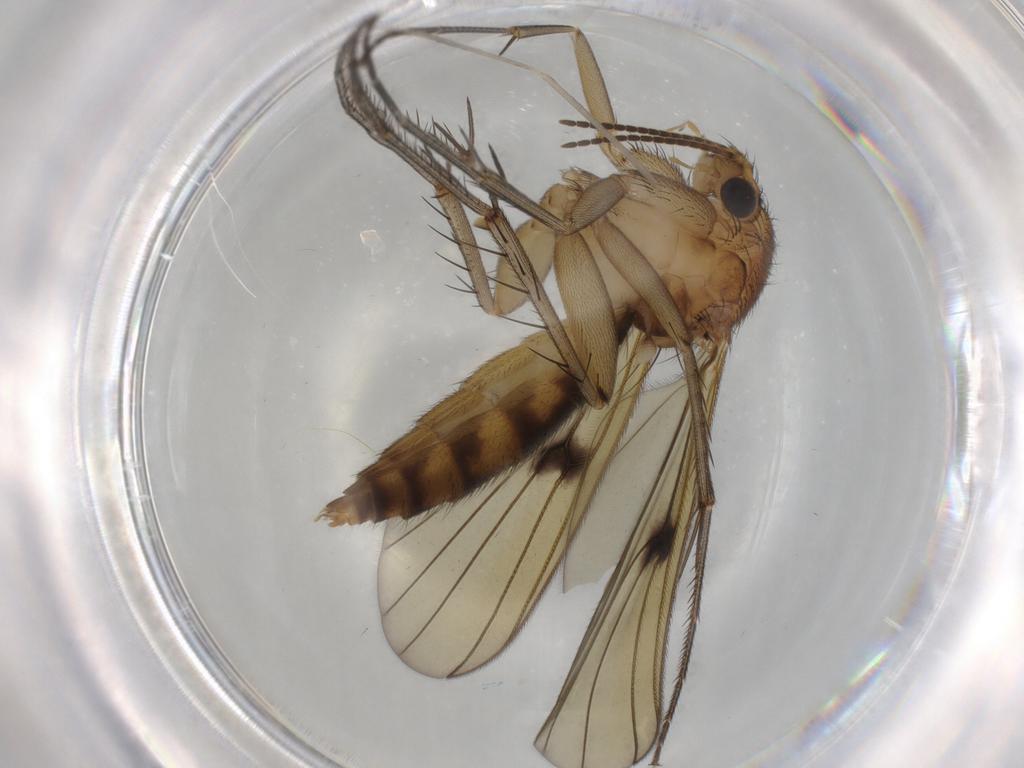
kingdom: Animalia
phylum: Arthropoda
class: Insecta
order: Diptera
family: Mycetophilidae
